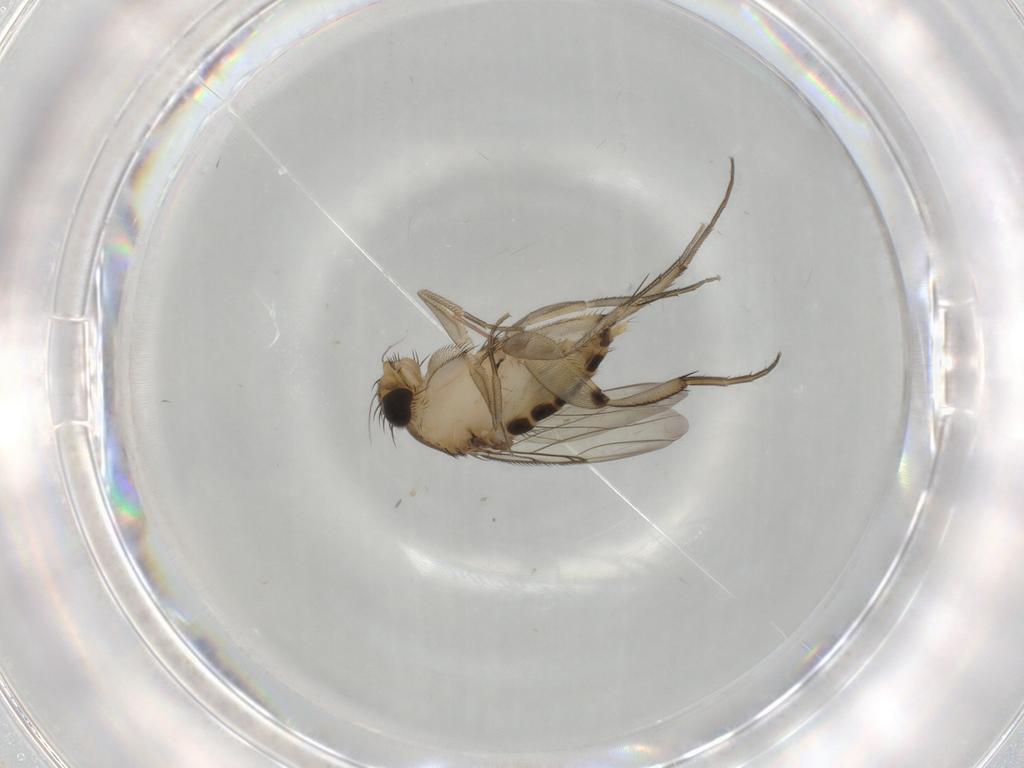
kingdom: Animalia
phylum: Arthropoda
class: Insecta
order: Diptera
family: Phoridae
